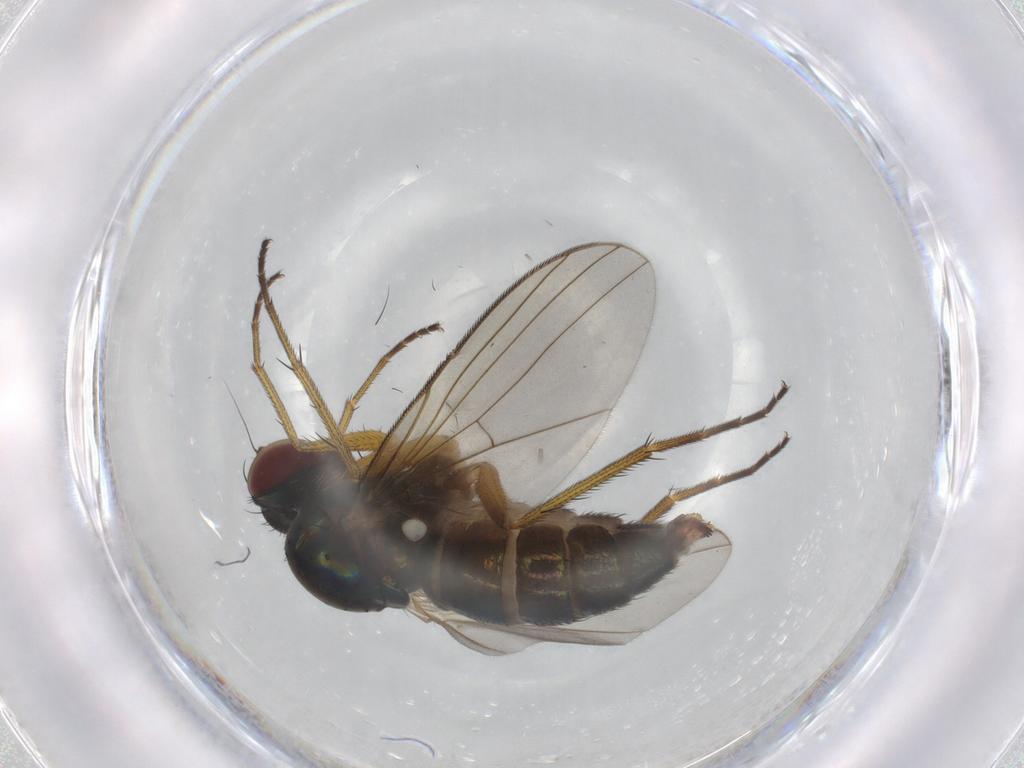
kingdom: Animalia
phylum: Arthropoda
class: Insecta
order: Diptera
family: Dolichopodidae
